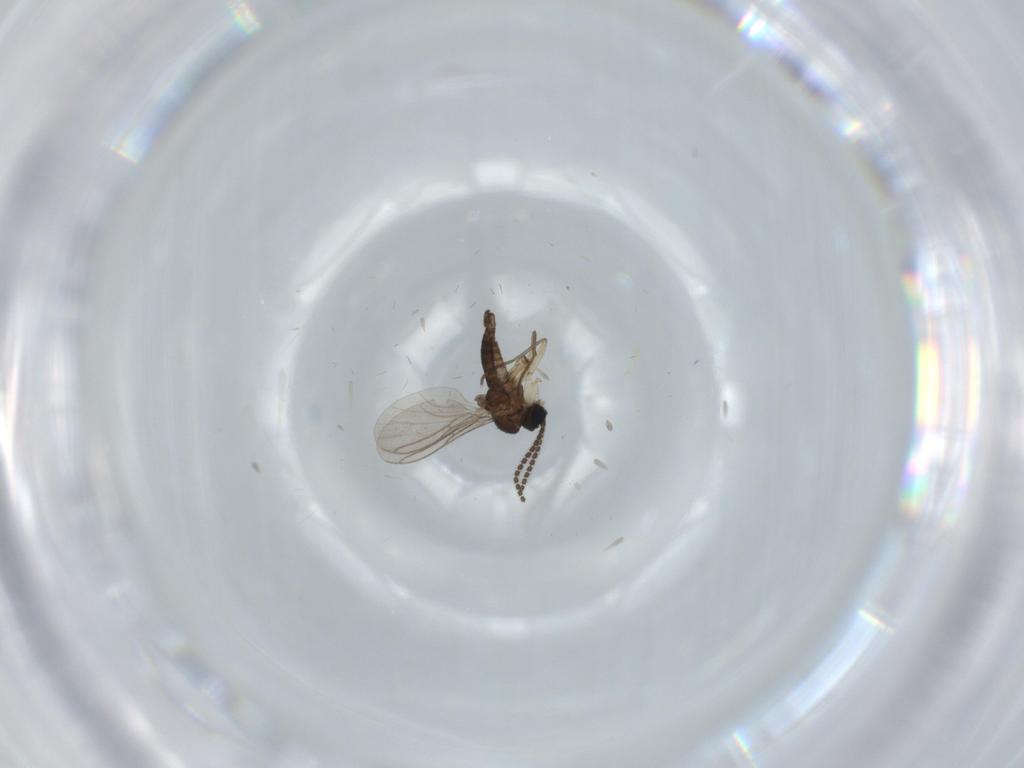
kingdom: Animalia
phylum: Arthropoda
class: Insecta
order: Diptera
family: Sciaridae
